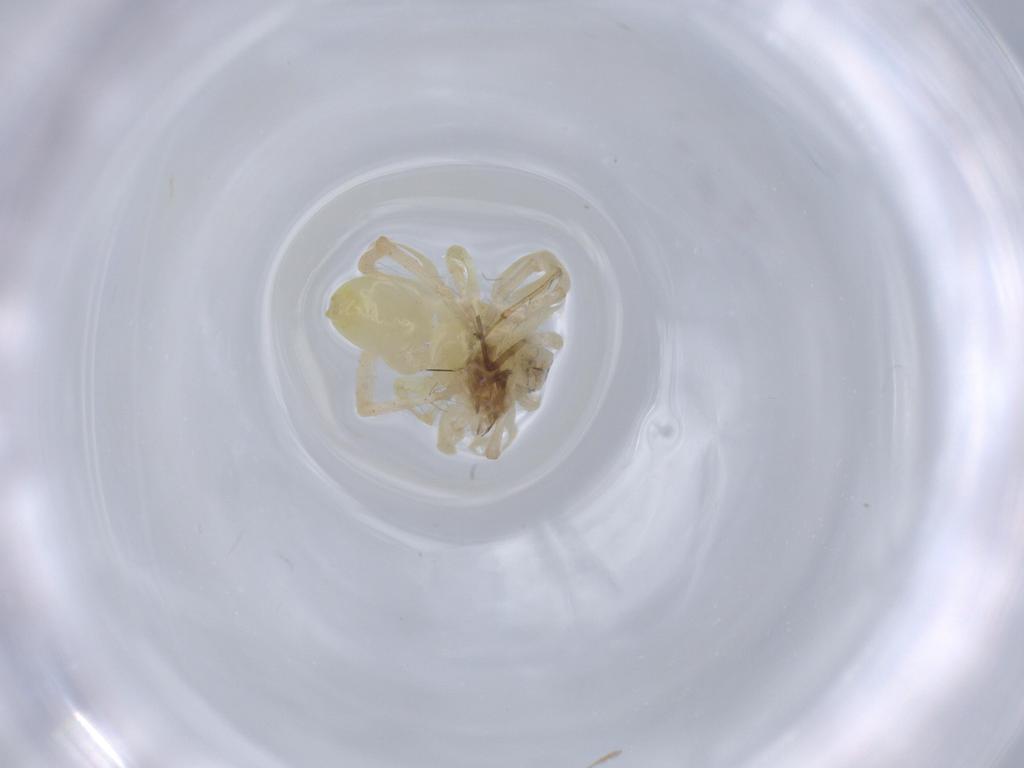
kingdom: Animalia
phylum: Arthropoda
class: Arachnida
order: Araneae
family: Anyphaenidae
